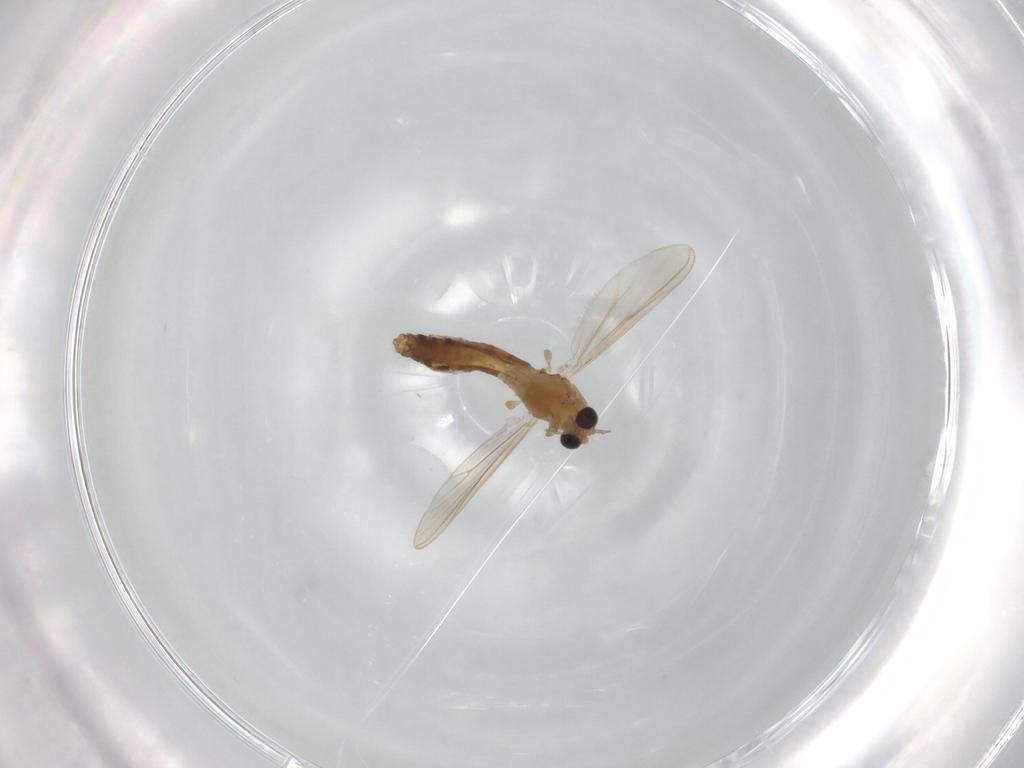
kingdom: Animalia
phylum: Arthropoda
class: Insecta
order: Diptera
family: Chironomidae
